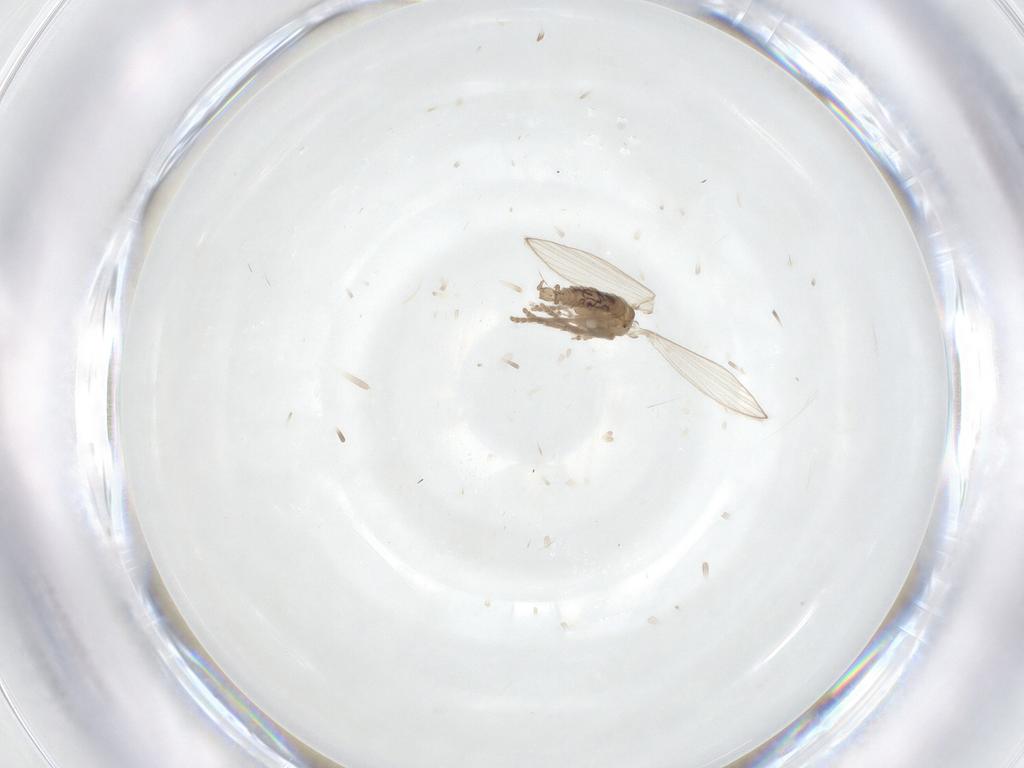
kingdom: Animalia
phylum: Arthropoda
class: Insecta
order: Diptera
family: Psychodidae
